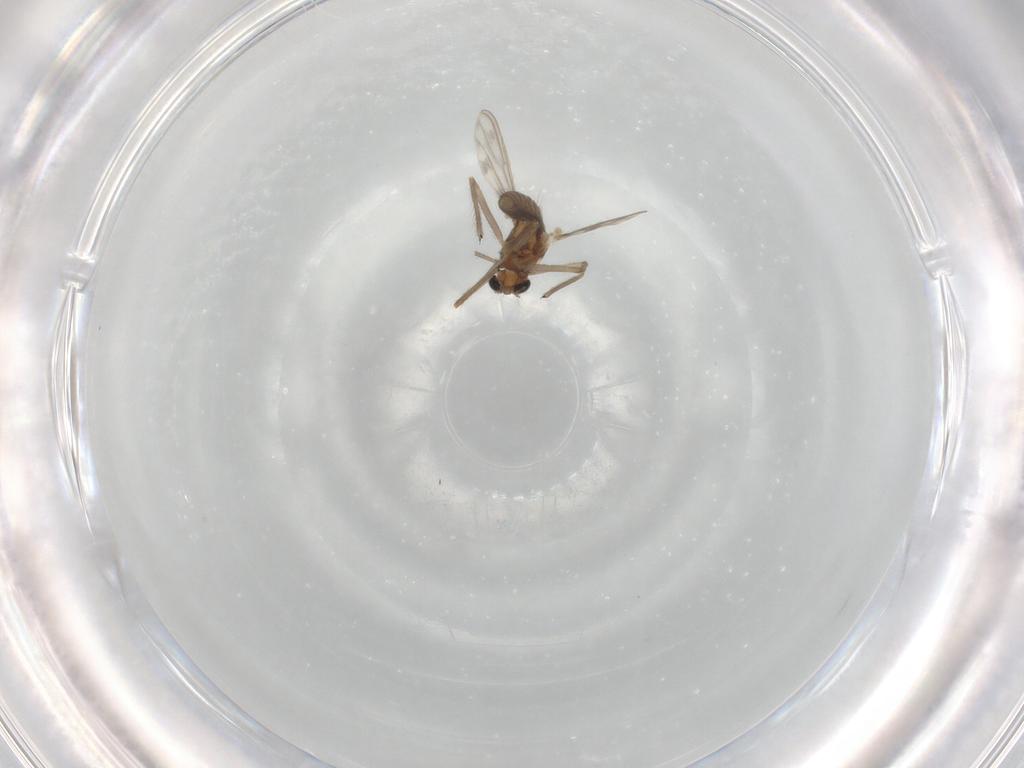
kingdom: Animalia
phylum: Arthropoda
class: Insecta
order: Diptera
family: Chironomidae
